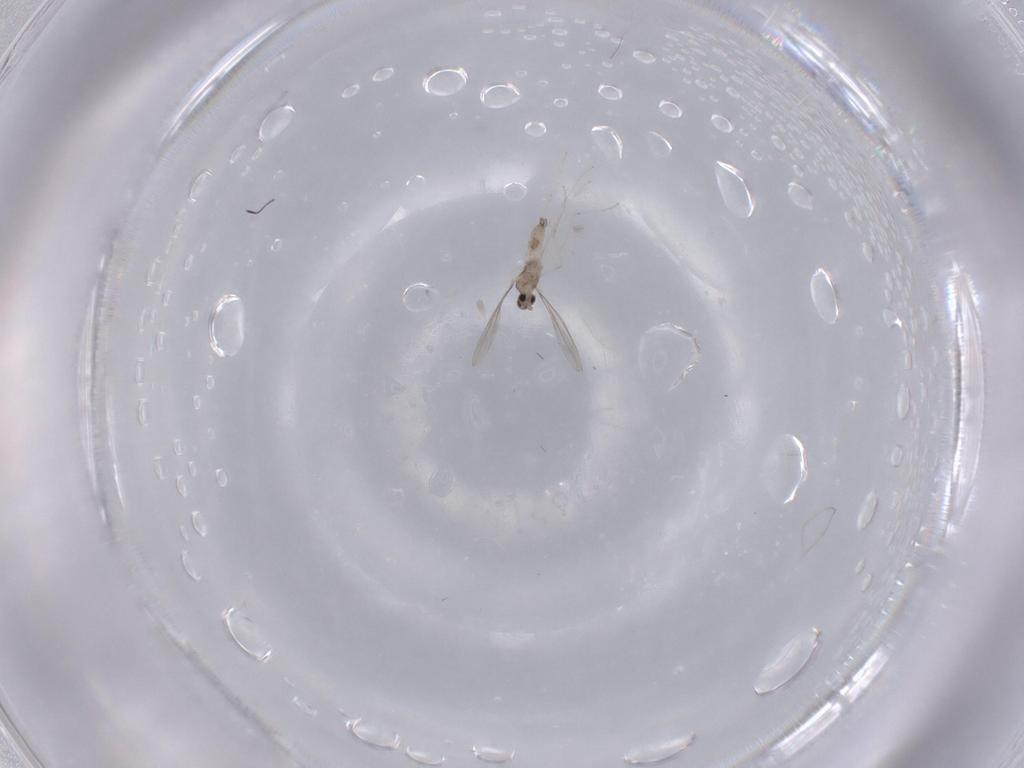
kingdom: Animalia
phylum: Arthropoda
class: Insecta
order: Diptera
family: Cecidomyiidae
